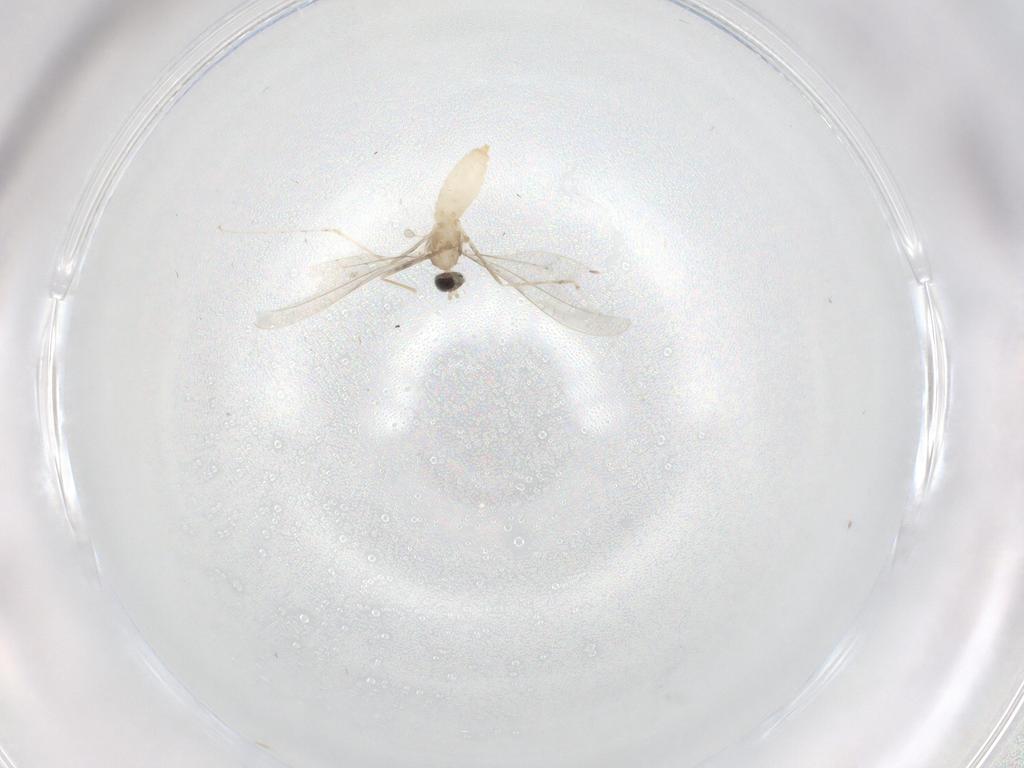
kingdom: Animalia
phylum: Arthropoda
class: Insecta
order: Diptera
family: Cecidomyiidae
